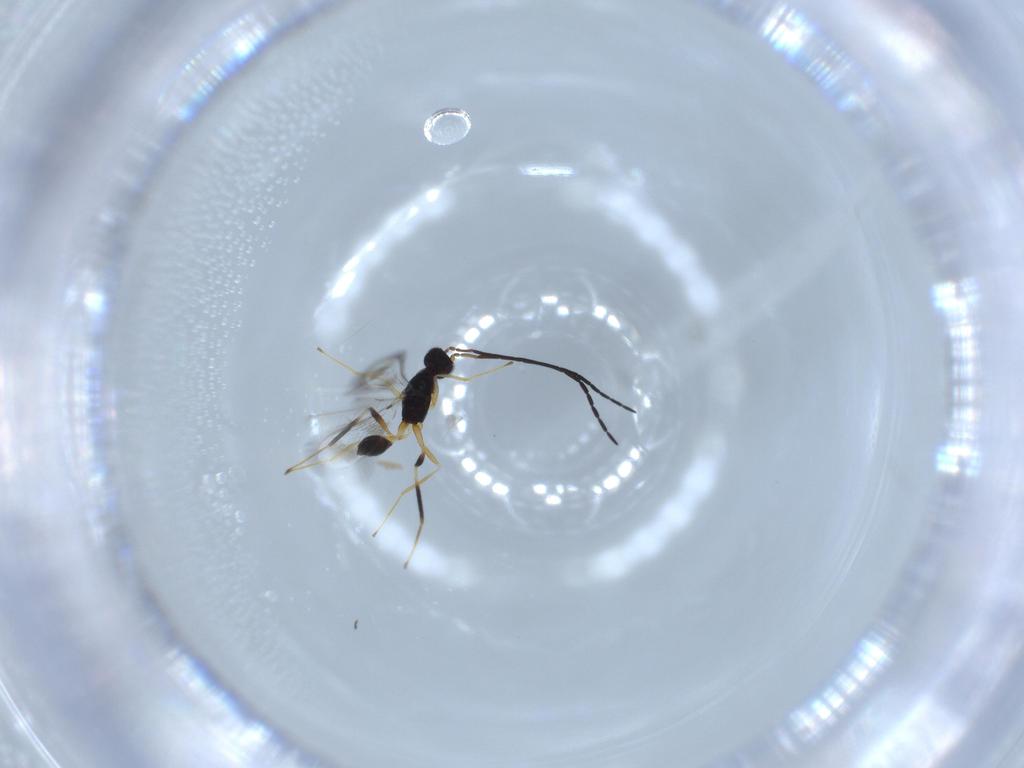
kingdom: Animalia
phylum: Arthropoda
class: Insecta
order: Hymenoptera
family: Mymaridae
